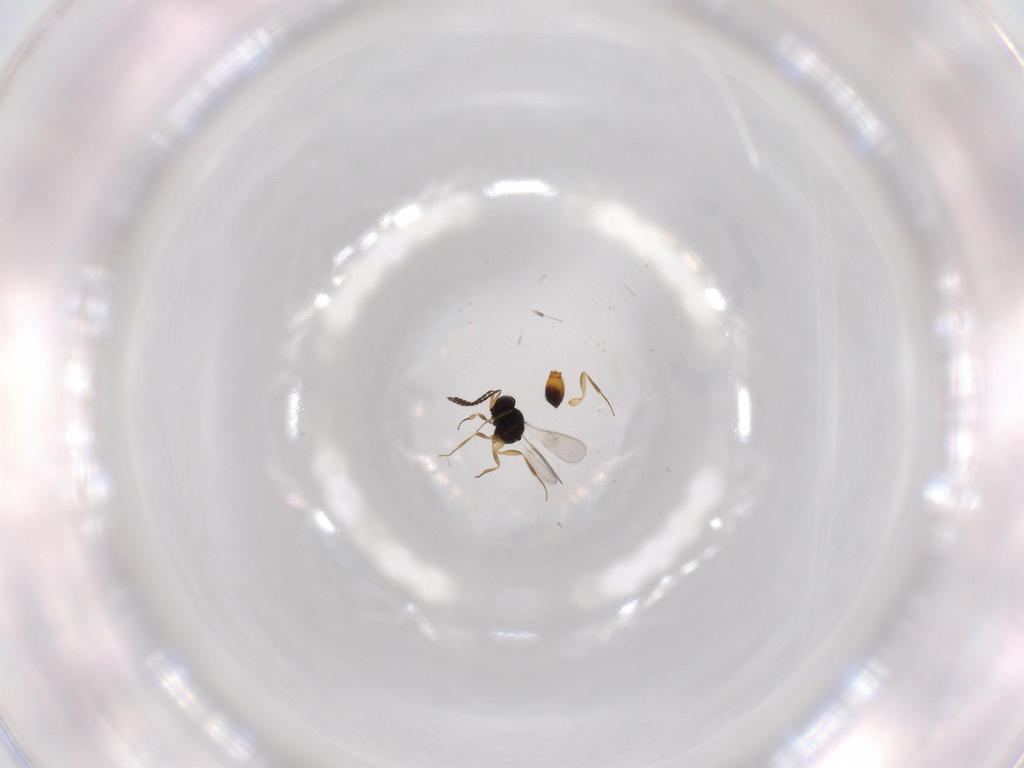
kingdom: Animalia
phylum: Arthropoda
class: Insecta
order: Hymenoptera
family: Scelionidae
